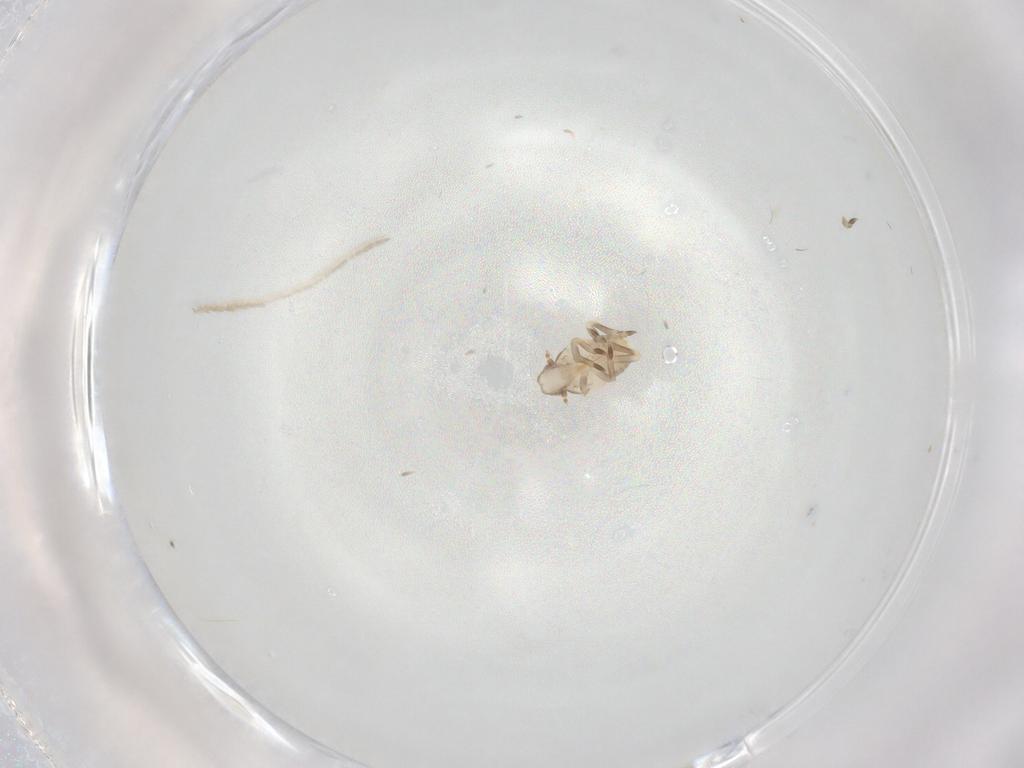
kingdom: Animalia
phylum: Arthropoda
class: Insecta
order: Hemiptera
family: Flatidae
